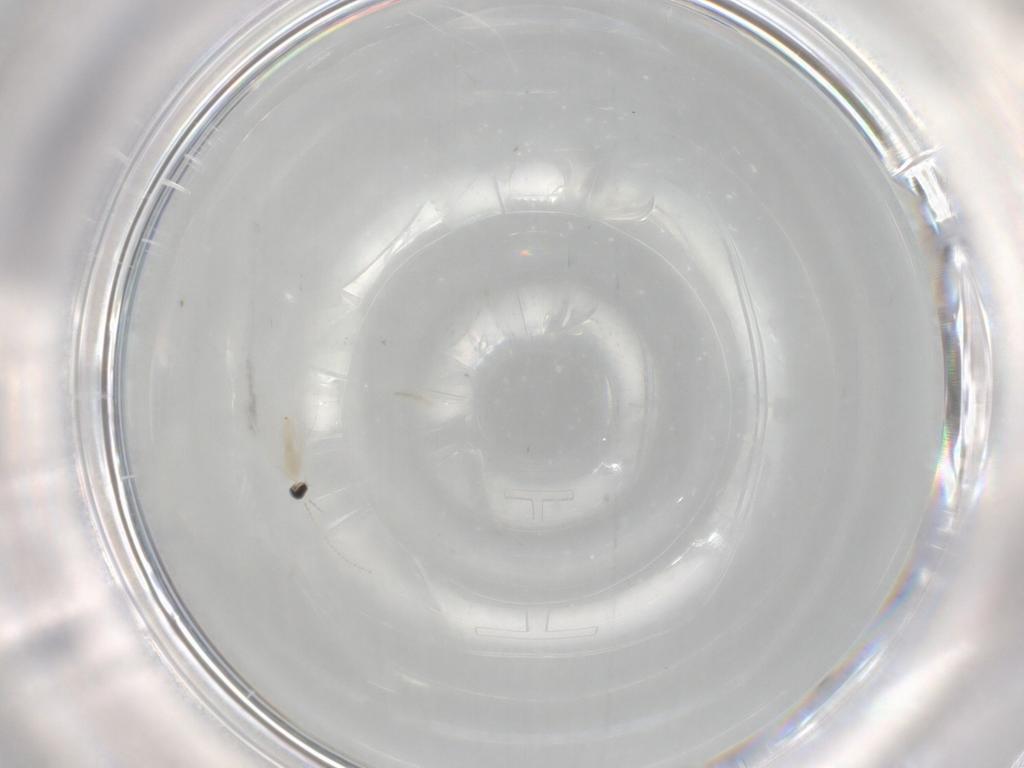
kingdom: Animalia
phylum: Arthropoda
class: Insecta
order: Diptera
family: Cecidomyiidae
